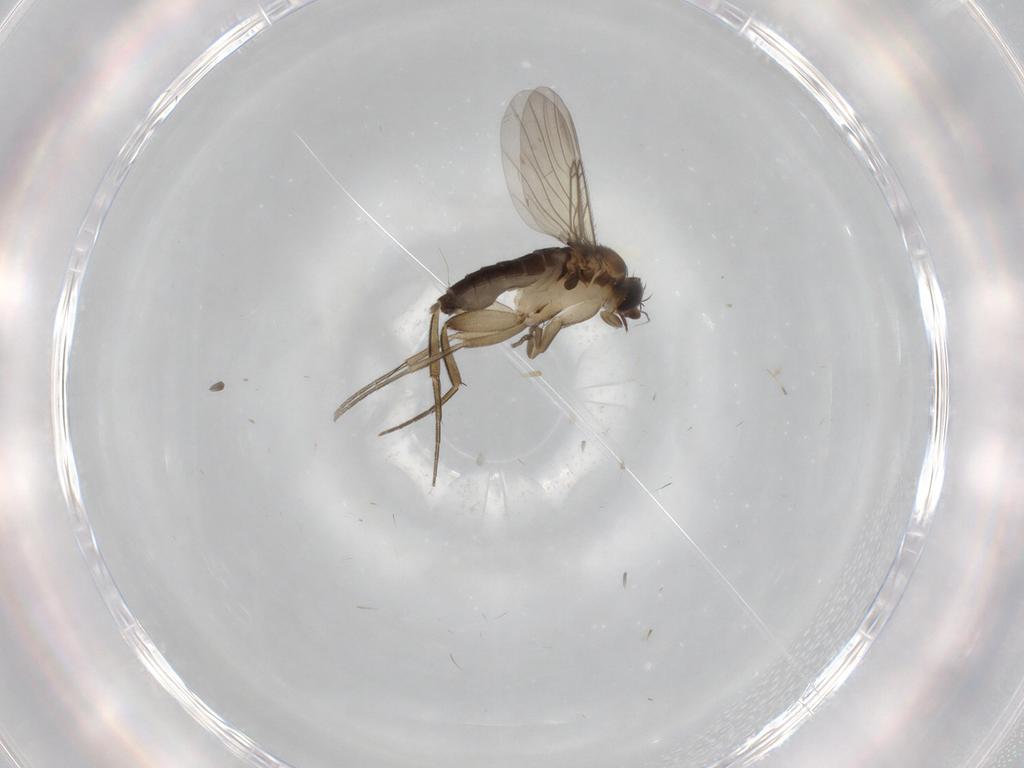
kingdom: Animalia
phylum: Arthropoda
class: Insecta
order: Diptera
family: Phoridae
